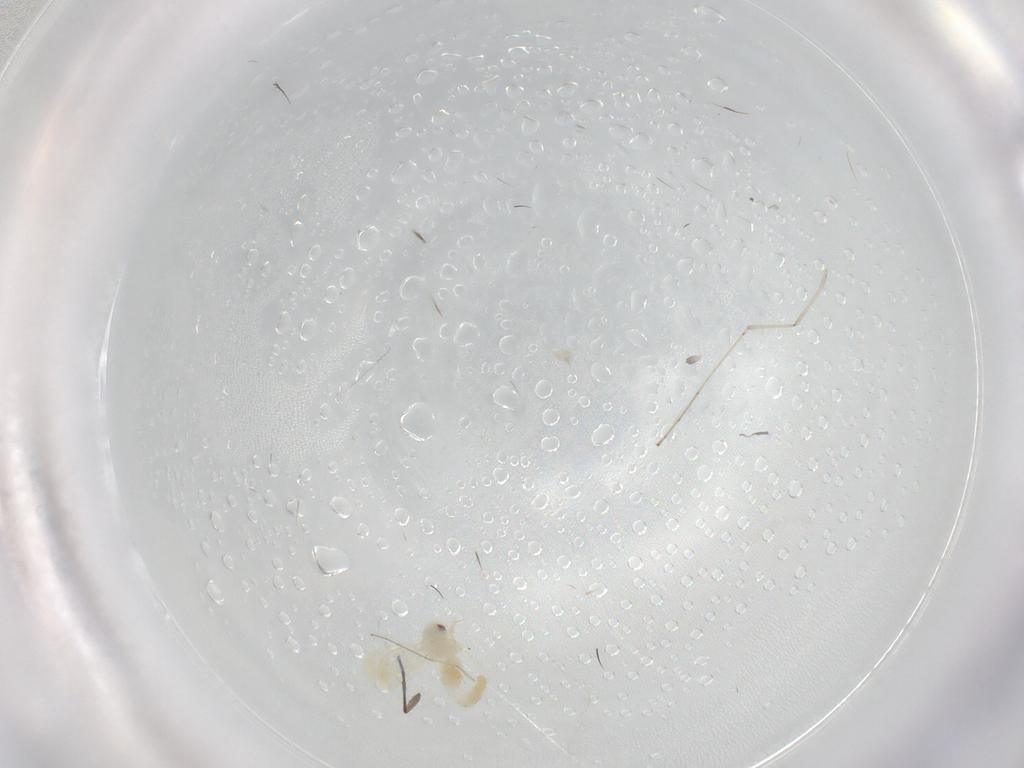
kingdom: Animalia
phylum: Arthropoda
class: Insecta
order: Hemiptera
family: Aleyrodidae
